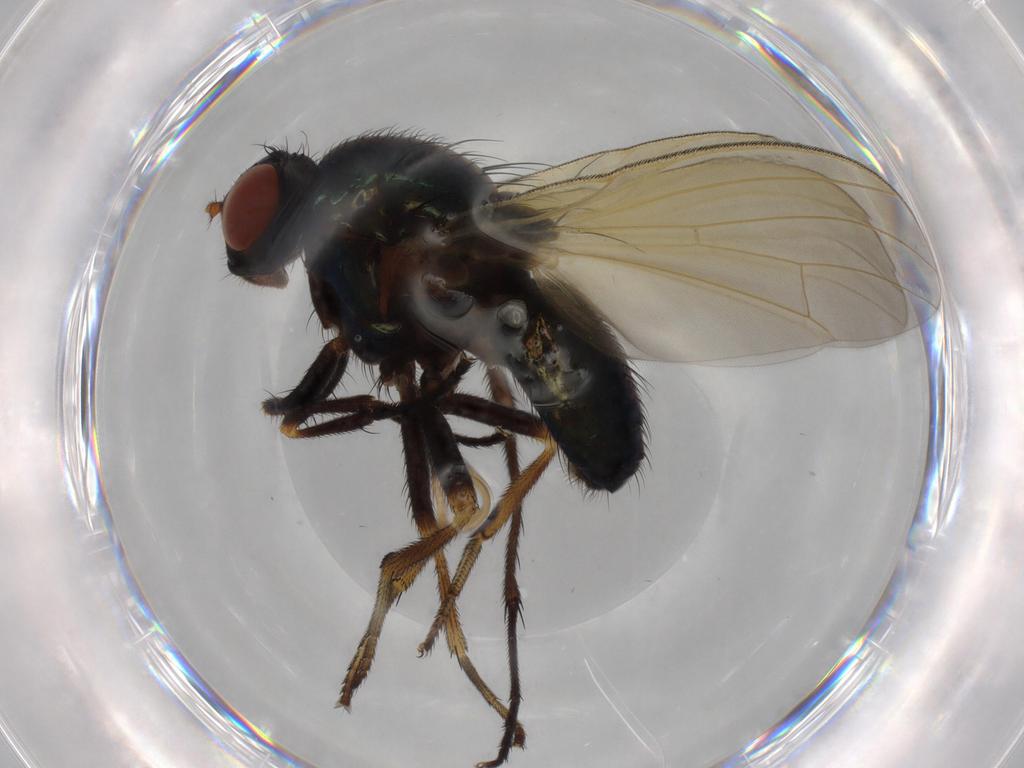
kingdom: Animalia
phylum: Arthropoda
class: Insecta
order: Diptera
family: Lauxaniidae
